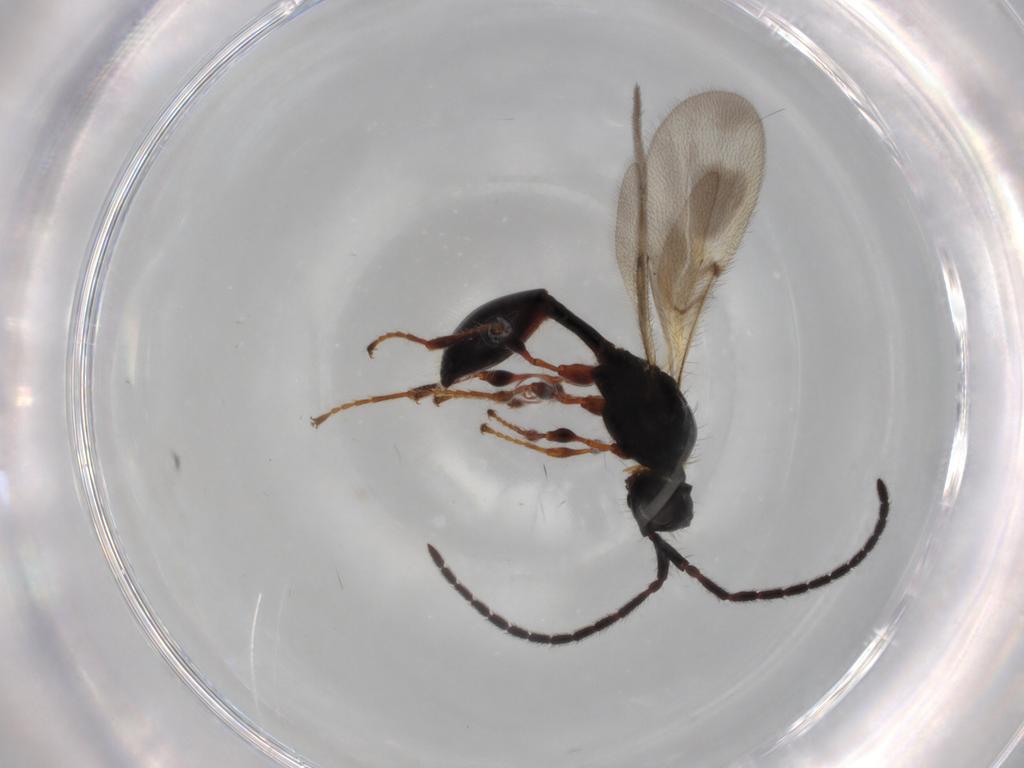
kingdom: Animalia
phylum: Arthropoda
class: Insecta
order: Hymenoptera
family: Diapriidae
